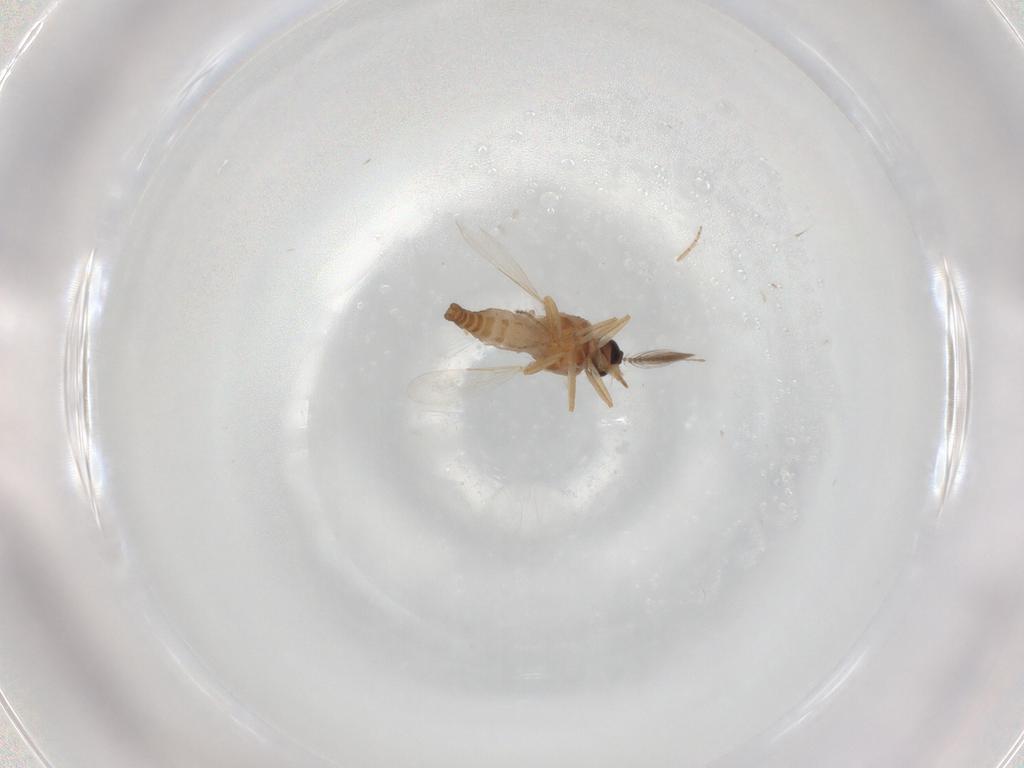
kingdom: Animalia
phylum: Arthropoda
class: Insecta
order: Diptera
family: Ceratopogonidae
